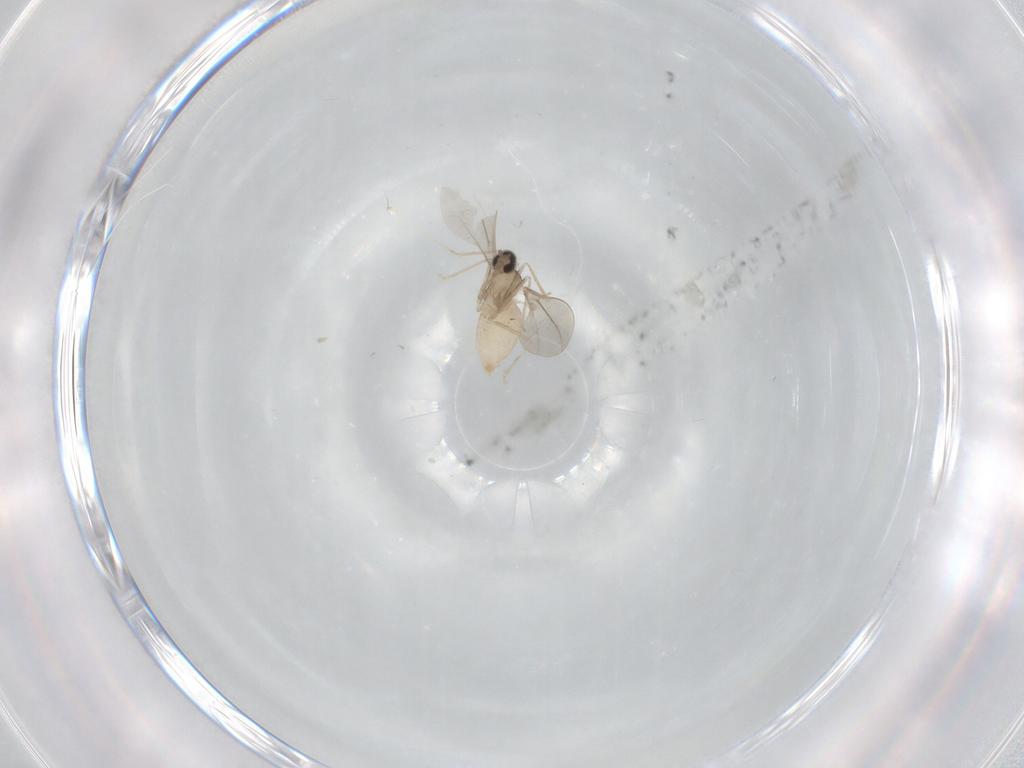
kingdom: Animalia
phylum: Arthropoda
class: Insecta
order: Diptera
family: Cecidomyiidae
